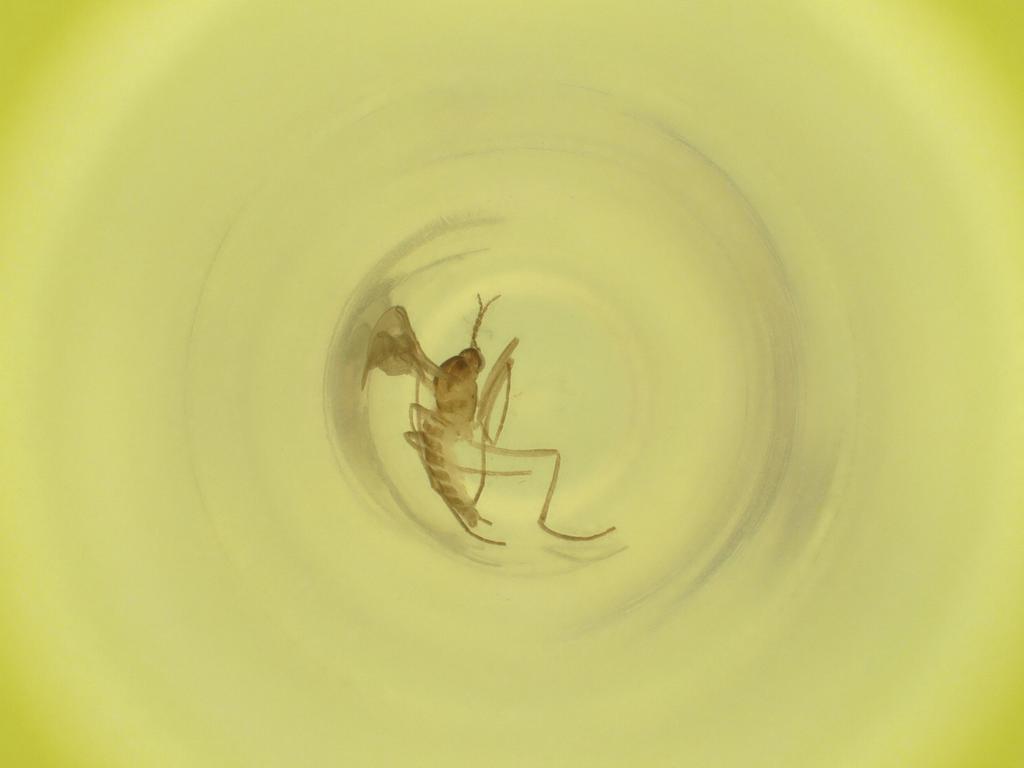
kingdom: Animalia
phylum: Arthropoda
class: Insecta
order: Diptera
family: Cecidomyiidae
